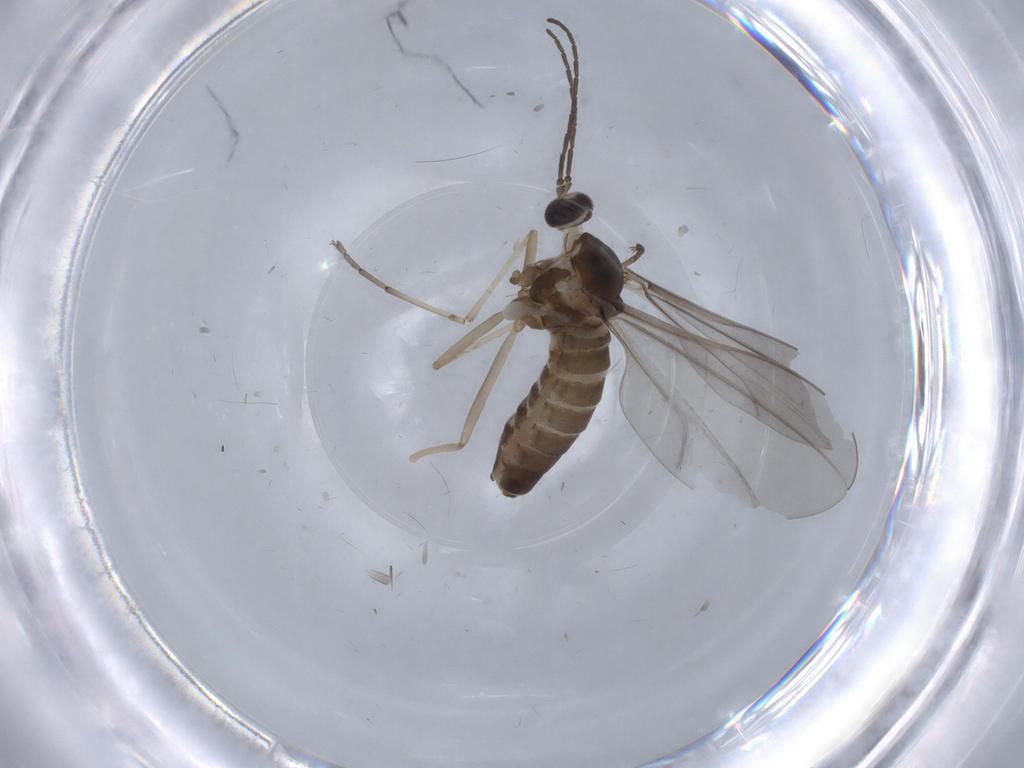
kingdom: Animalia
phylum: Arthropoda
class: Insecta
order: Diptera
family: Cecidomyiidae
